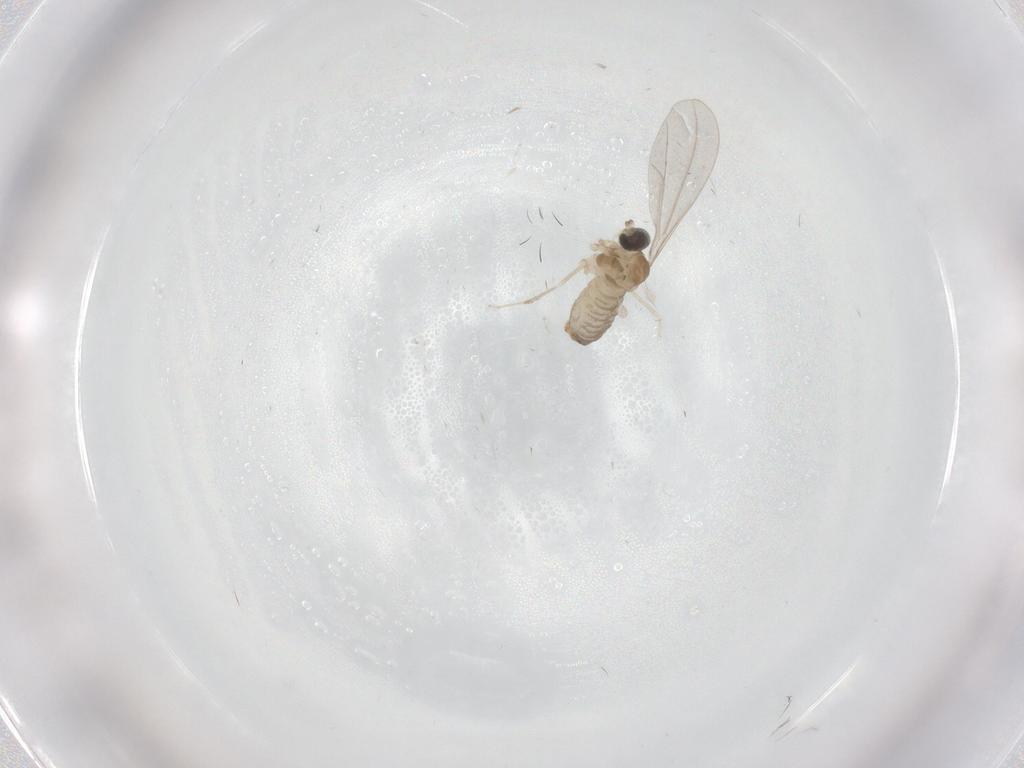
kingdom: Animalia
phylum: Arthropoda
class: Insecta
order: Diptera
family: Cecidomyiidae
